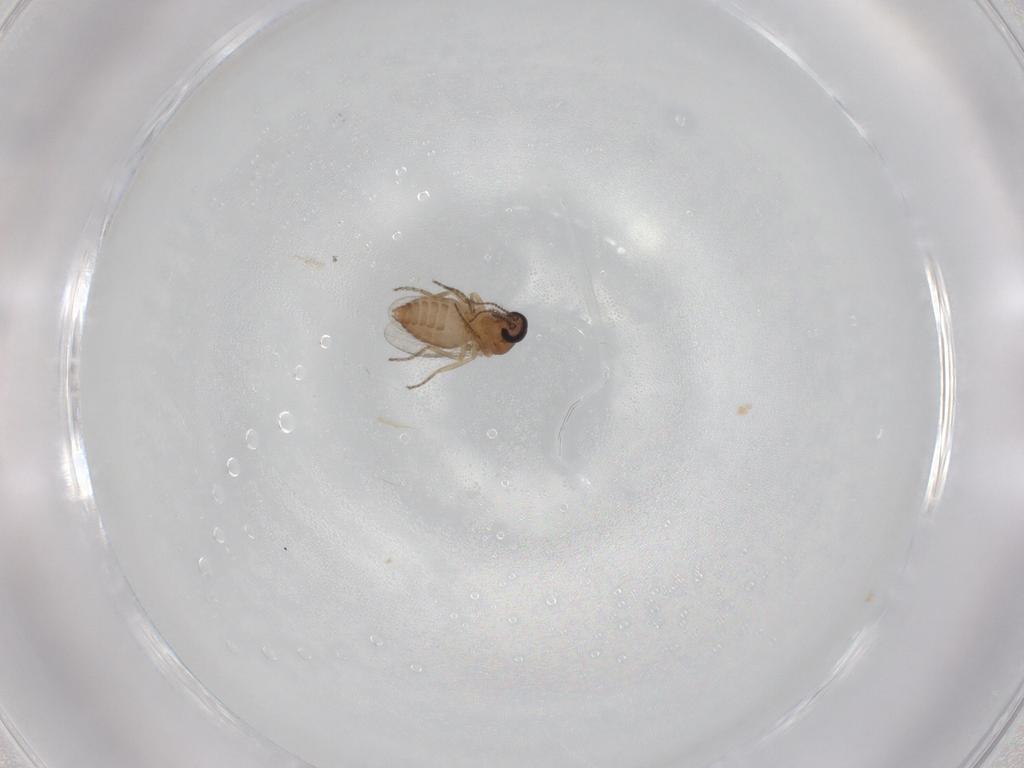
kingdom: Animalia
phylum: Arthropoda
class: Insecta
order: Diptera
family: Ceratopogonidae
